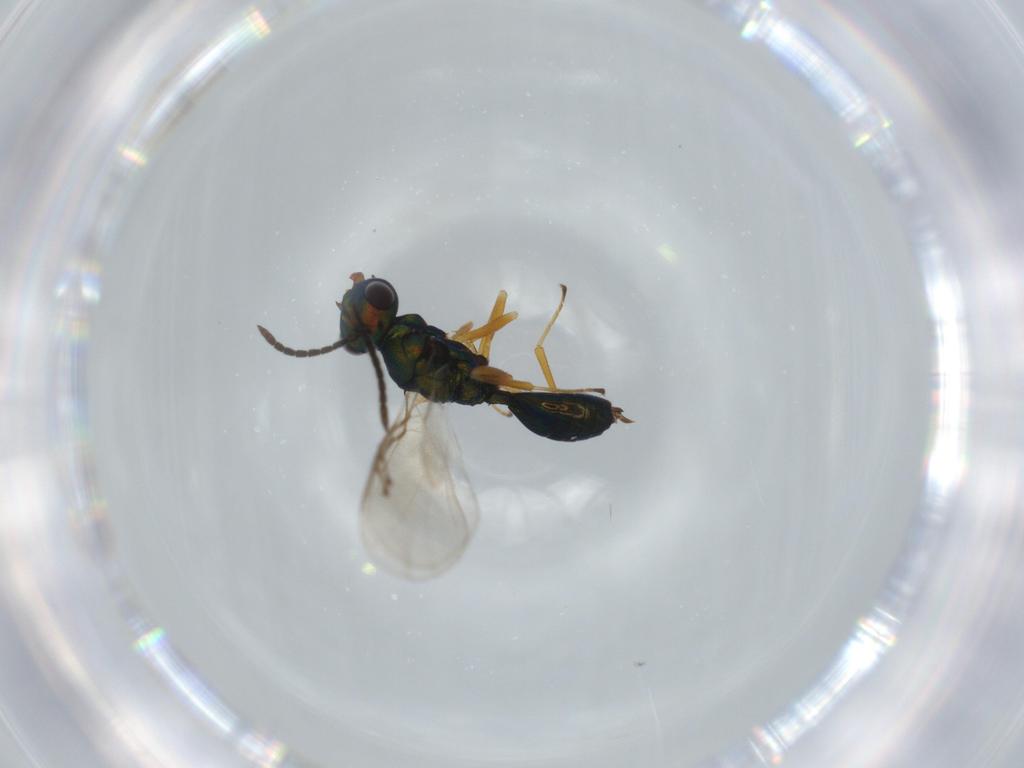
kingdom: Animalia
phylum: Arthropoda
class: Insecta
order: Hymenoptera
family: Pteromalidae
